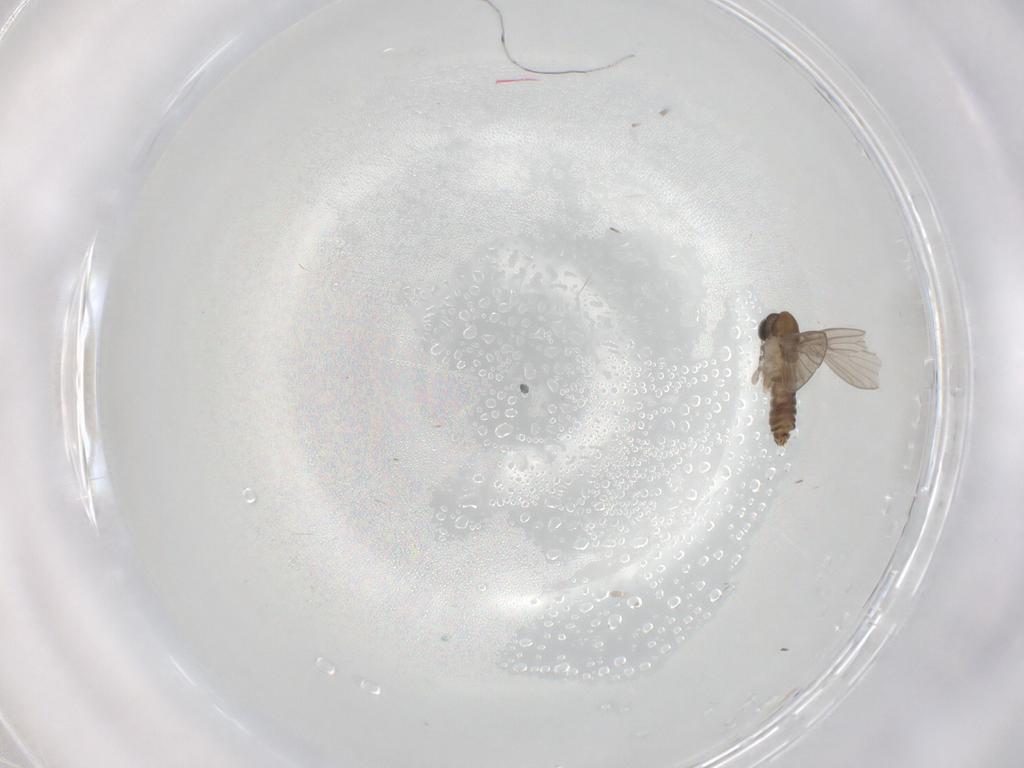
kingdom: Animalia
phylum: Arthropoda
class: Insecta
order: Diptera
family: Psychodidae
